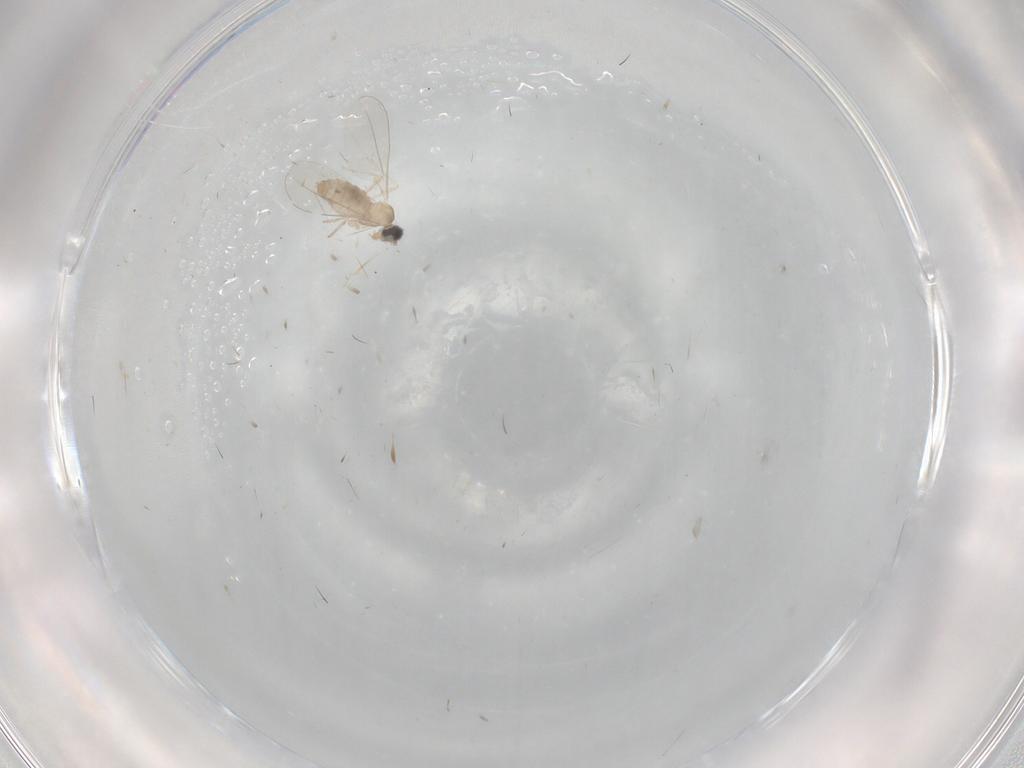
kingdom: Animalia
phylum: Arthropoda
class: Insecta
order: Diptera
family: Cecidomyiidae
